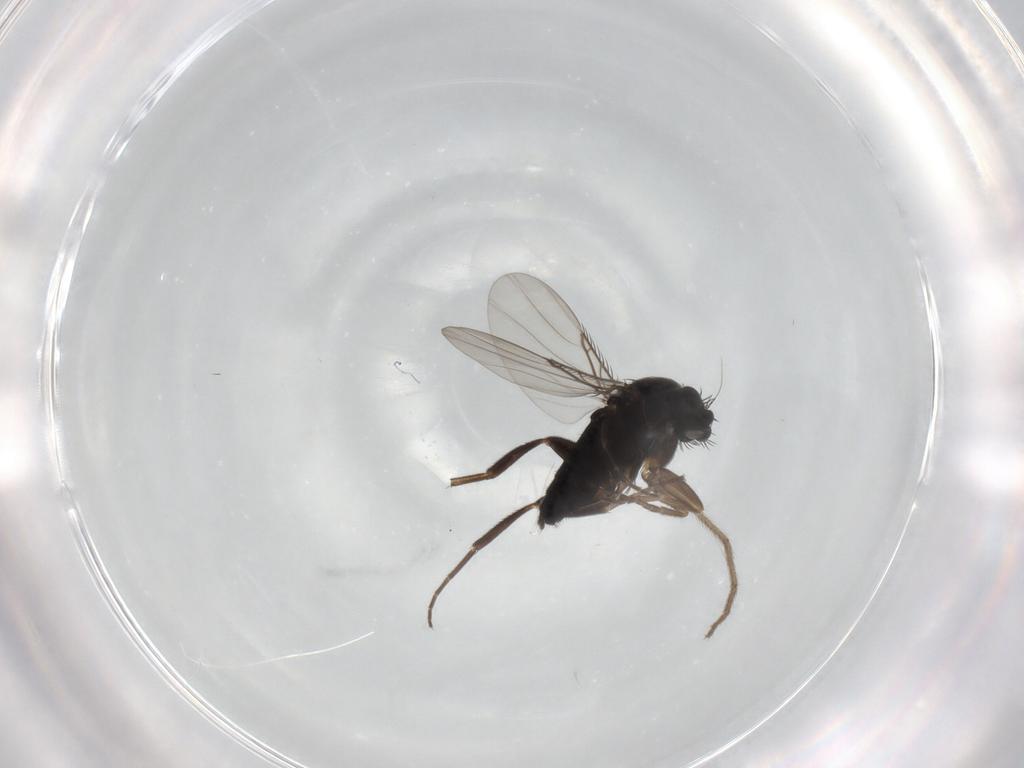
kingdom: Animalia
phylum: Arthropoda
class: Insecta
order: Diptera
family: Phoridae
